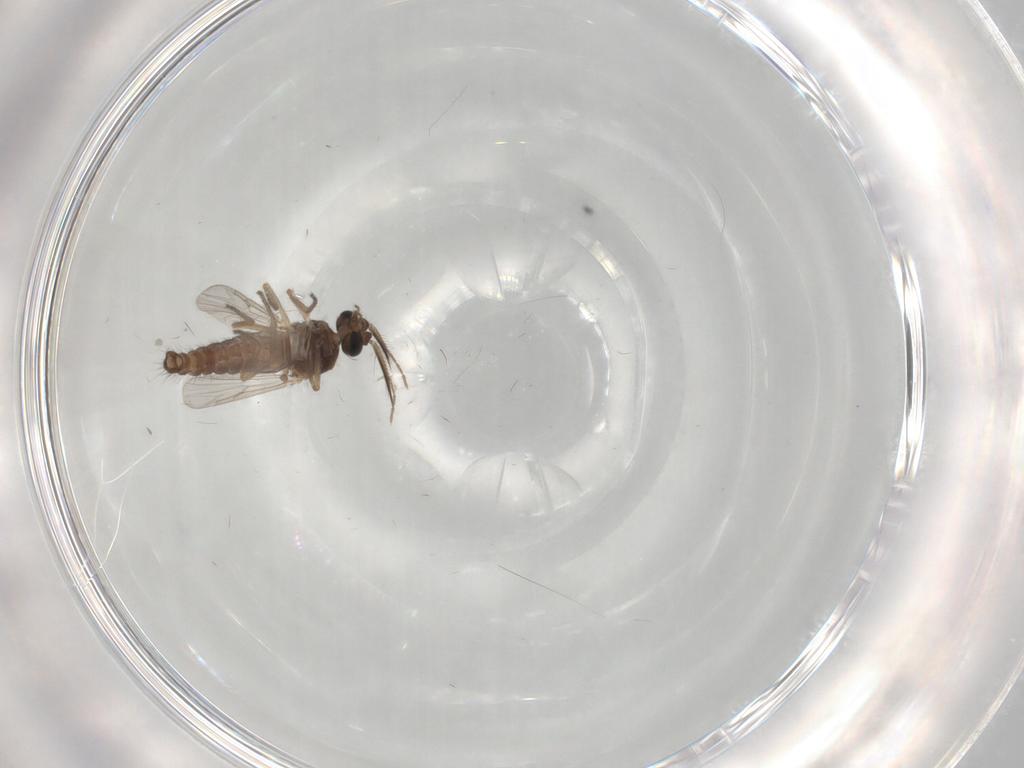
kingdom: Animalia
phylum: Arthropoda
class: Insecta
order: Diptera
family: Ceratopogonidae
